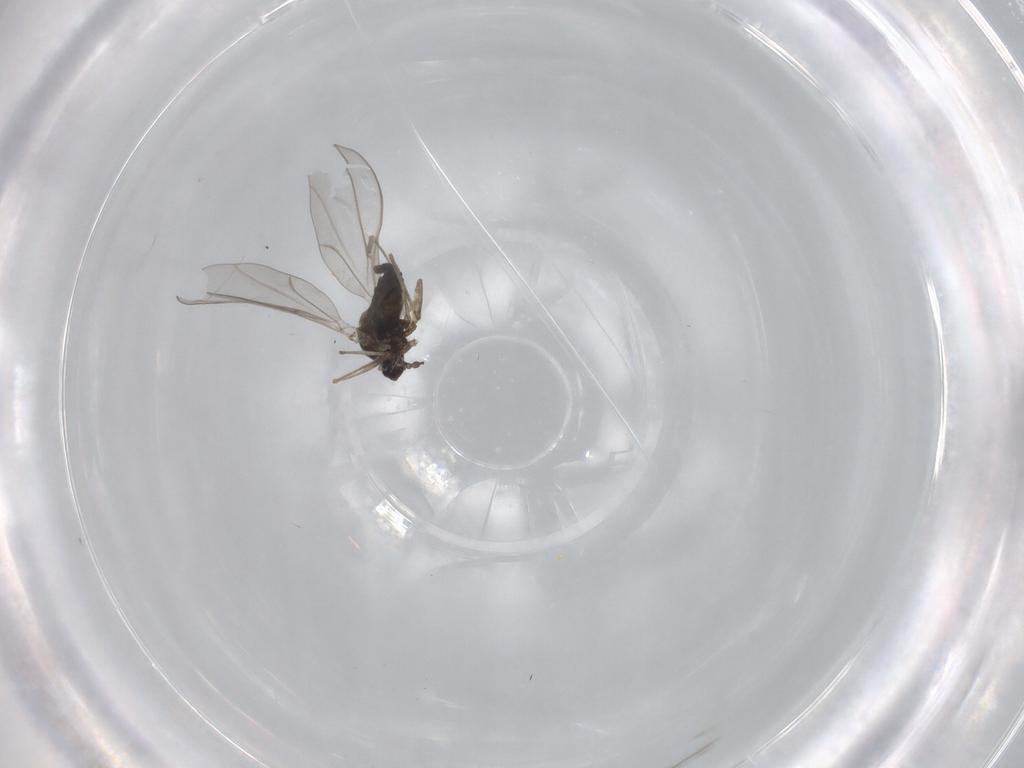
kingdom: Animalia
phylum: Arthropoda
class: Insecta
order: Diptera
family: Cecidomyiidae
